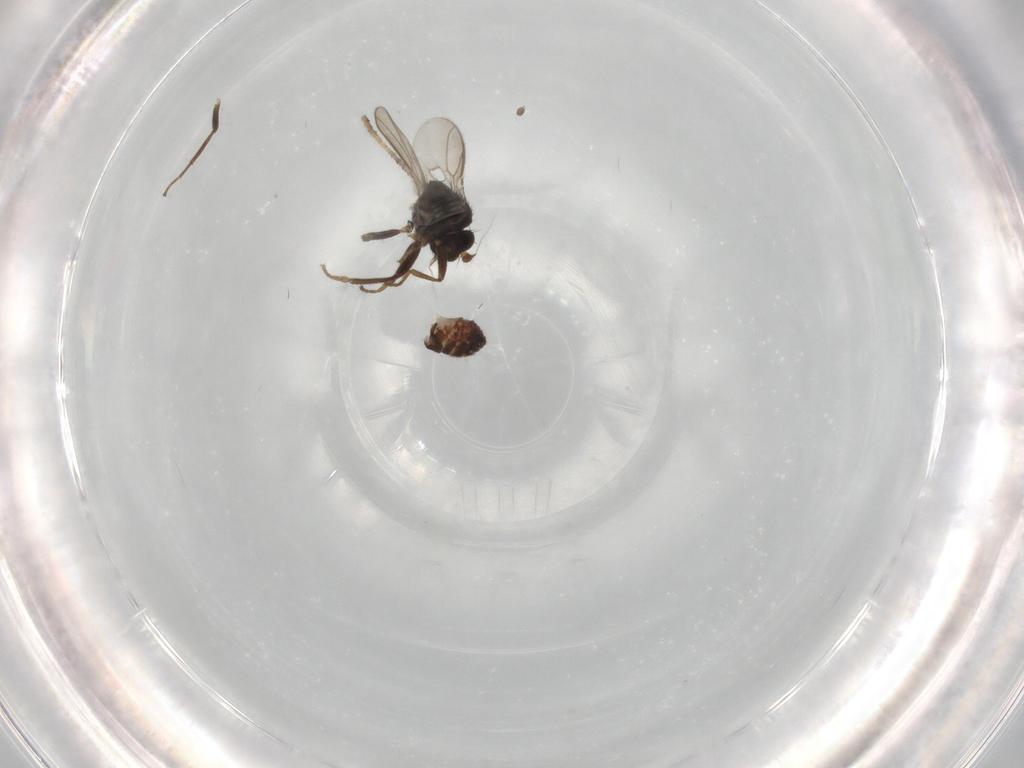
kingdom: Animalia
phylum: Arthropoda
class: Insecta
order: Diptera
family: Sphaeroceridae
